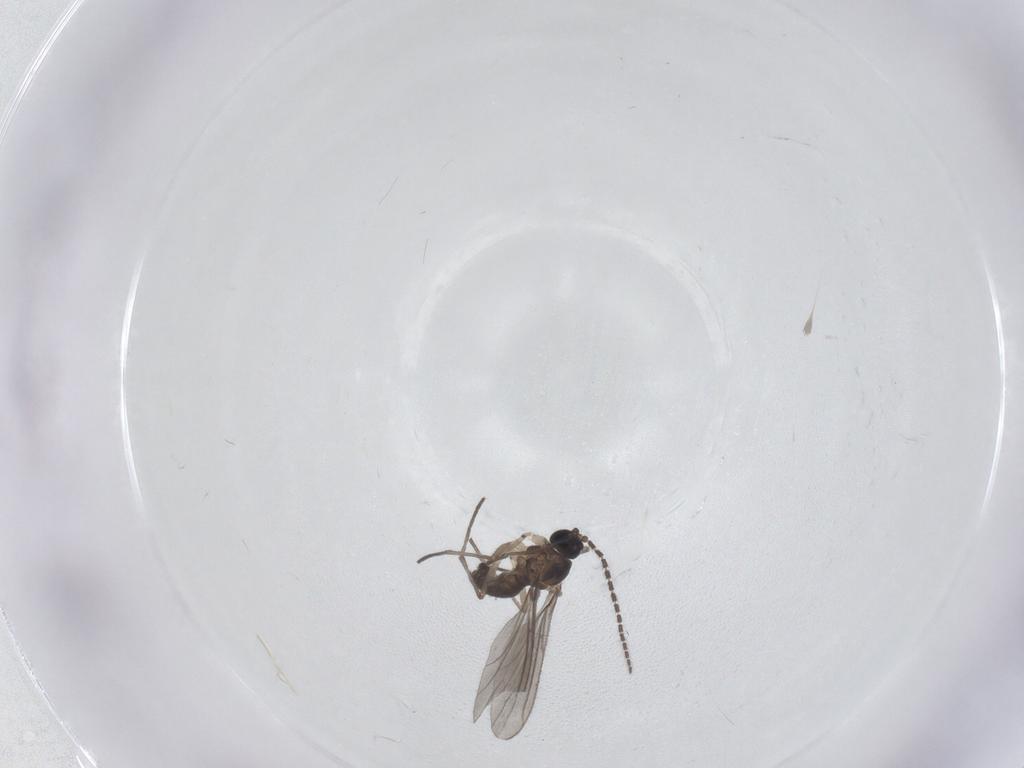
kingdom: Animalia
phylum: Arthropoda
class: Insecta
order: Diptera
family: Sciaridae
